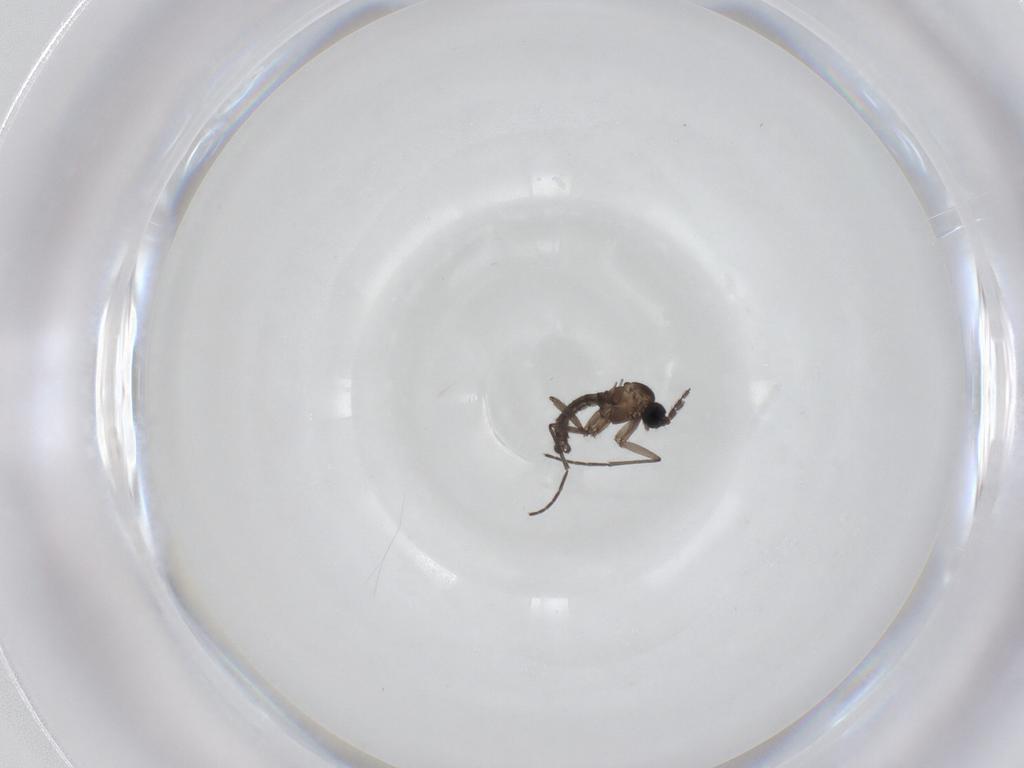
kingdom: Animalia
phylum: Arthropoda
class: Insecta
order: Diptera
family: Sciaridae
